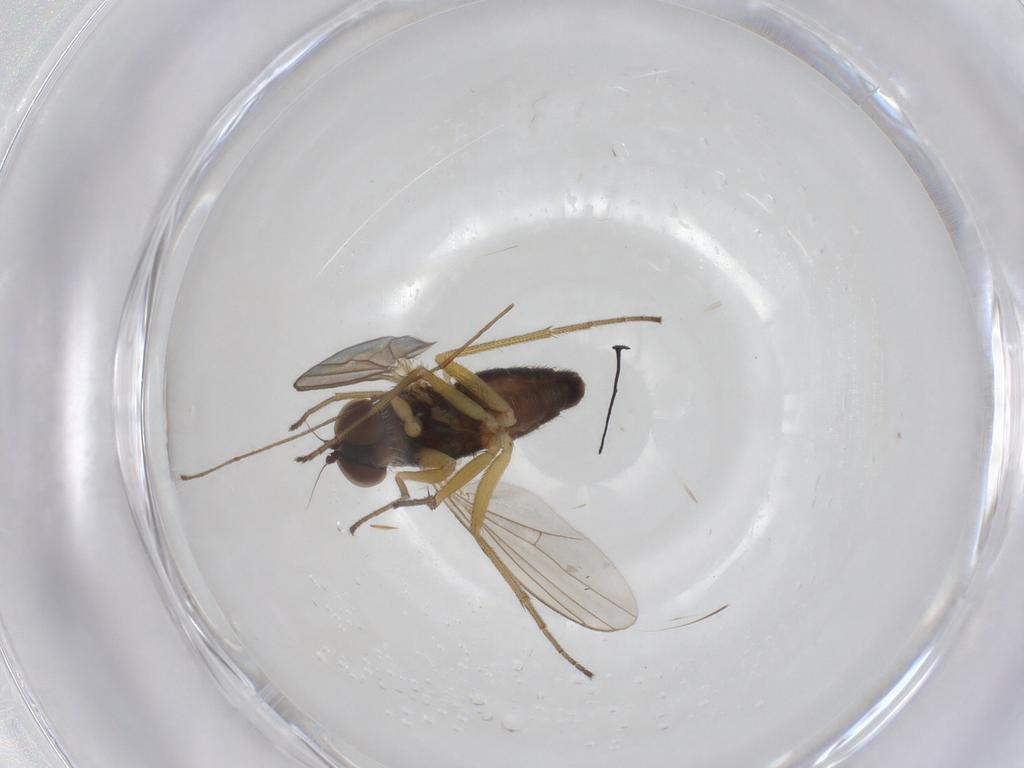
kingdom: Animalia
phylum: Arthropoda
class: Insecta
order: Diptera
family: Dolichopodidae
